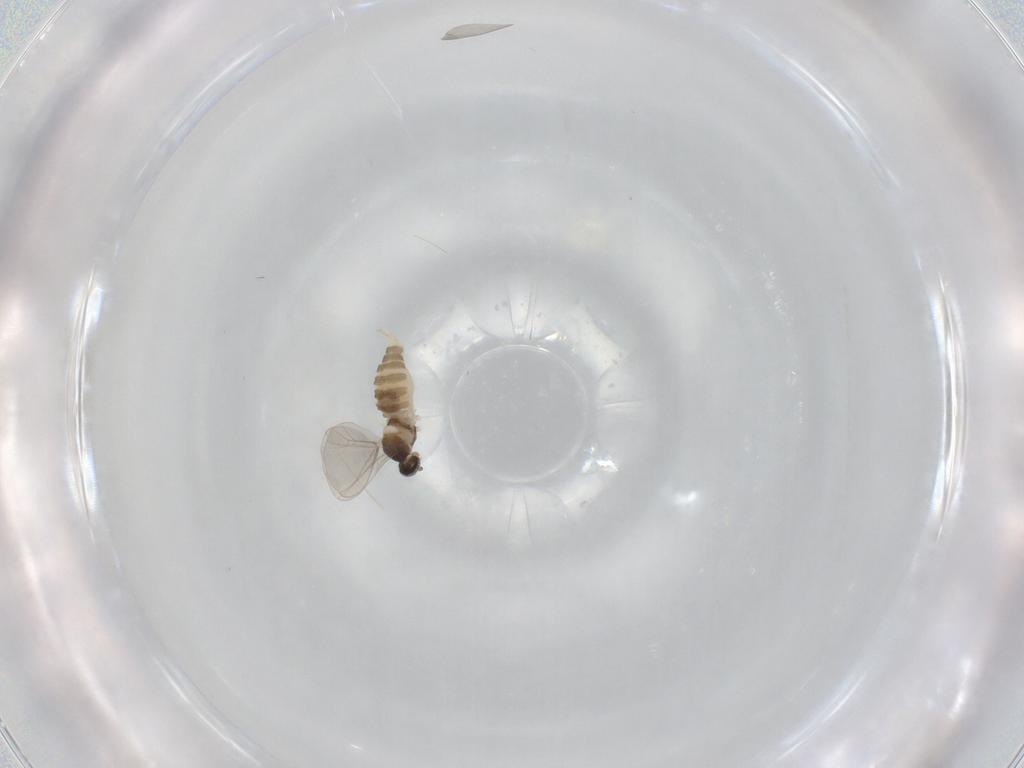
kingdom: Animalia
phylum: Arthropoda
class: Insecta
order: Diptera
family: Cecidomyiidae
